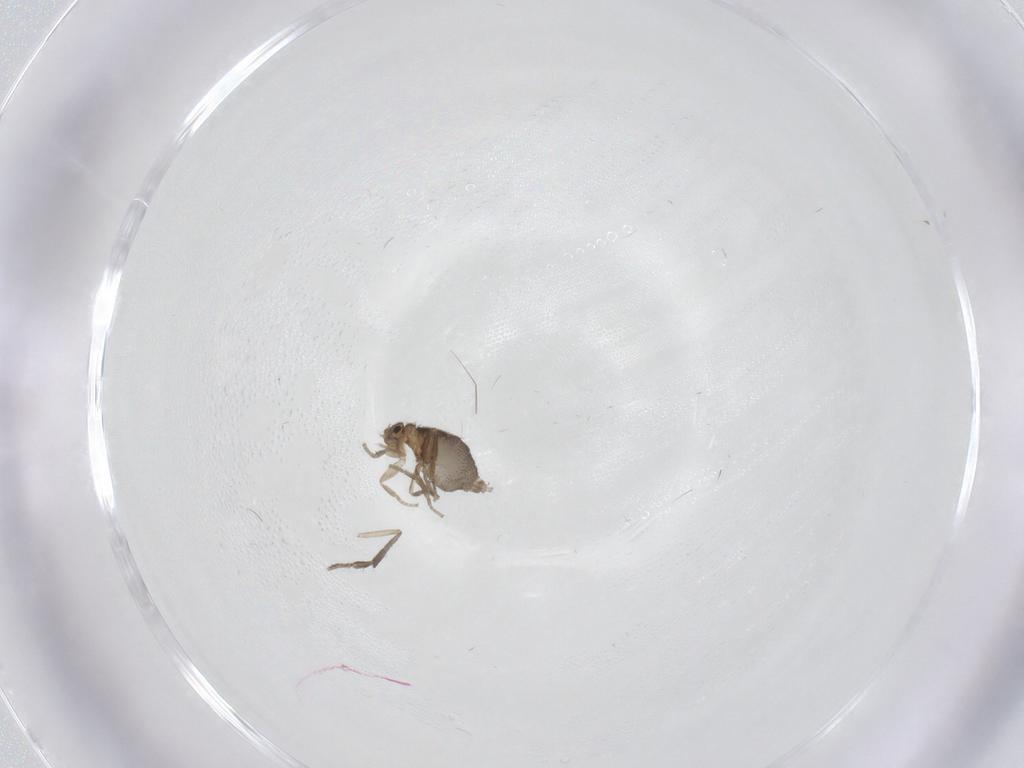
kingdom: Animalia
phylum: Arthropoda
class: Insecta
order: Diptera
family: Phoridae
